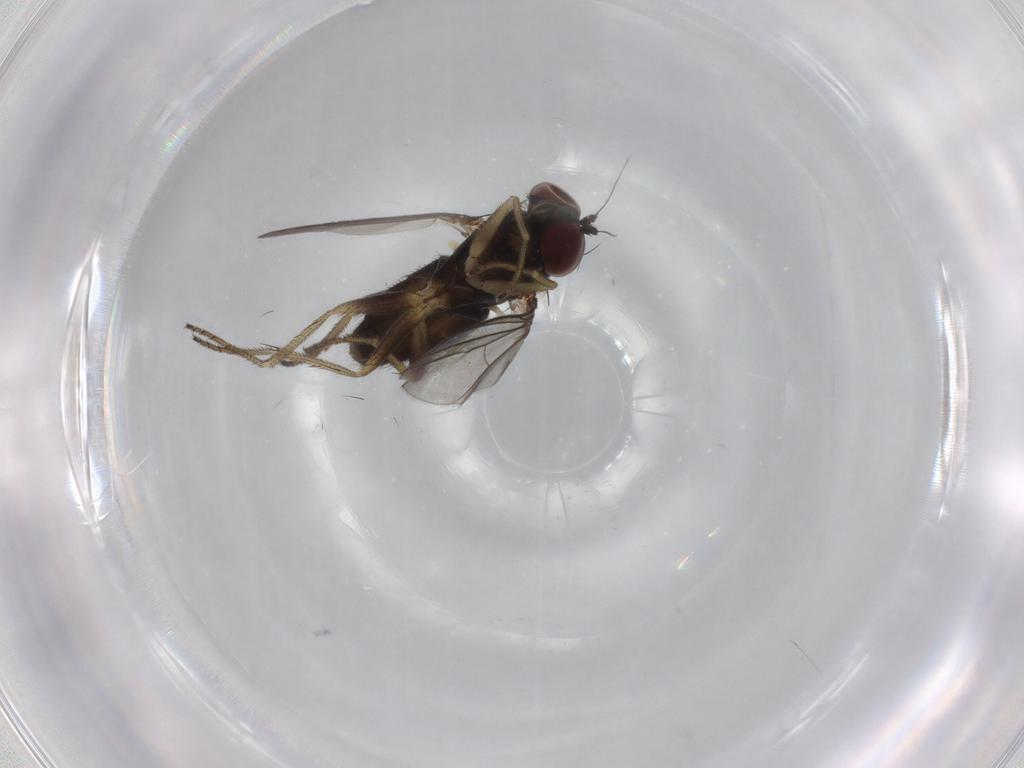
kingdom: Animalia
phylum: Arthropoda
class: Insecta
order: Diptera
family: Dolichopodidae
